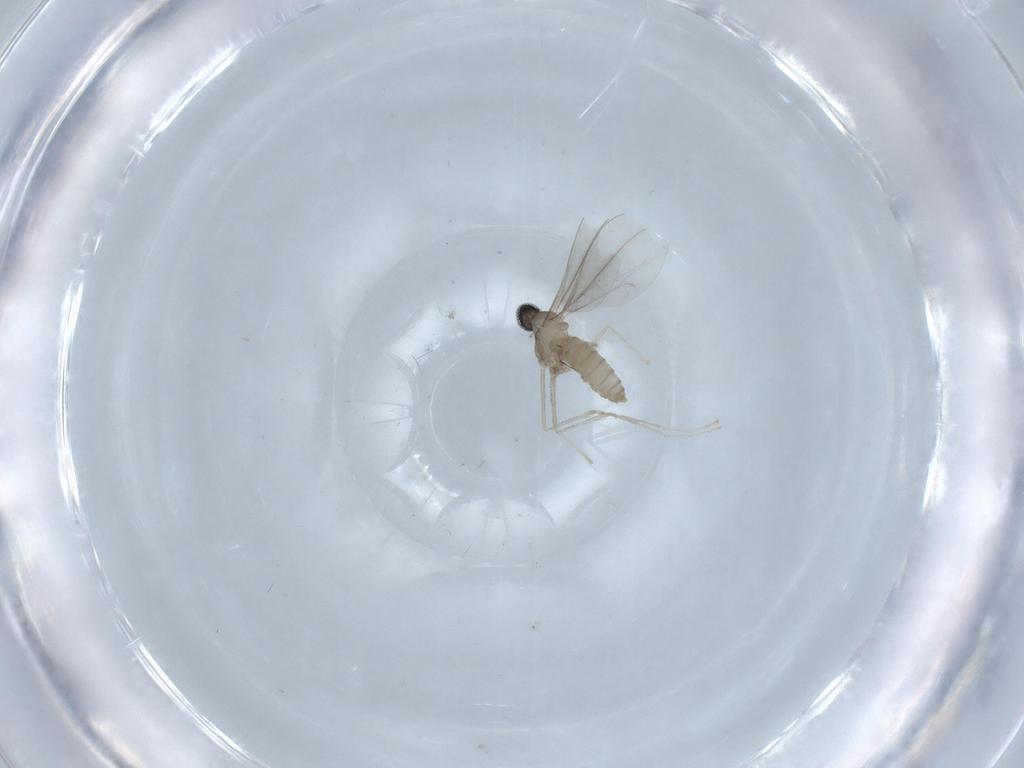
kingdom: Animalia
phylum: Arthropoda
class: Insecta
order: Diptera
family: Cecidomyiidae
